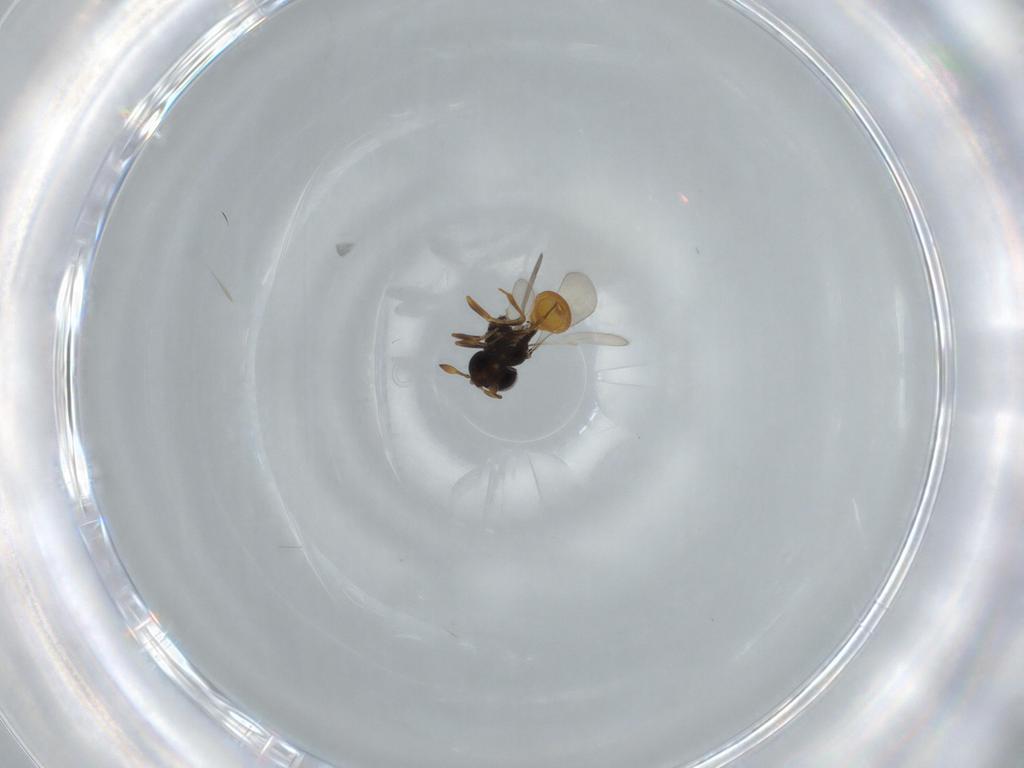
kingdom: Animalia
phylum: Arthropoda
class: Insecta
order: Hymenoptera
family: Scelionidae
